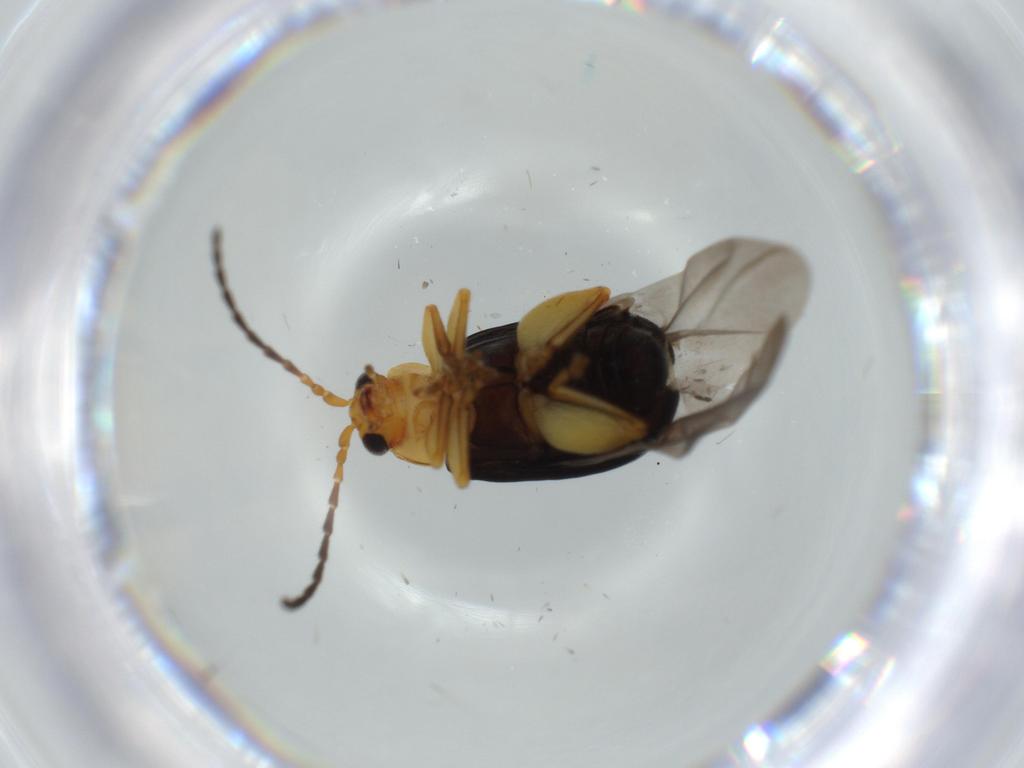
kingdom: Animalia
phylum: Arthropoda
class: Insecta
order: Coleoptera
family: Chrysomelidae
